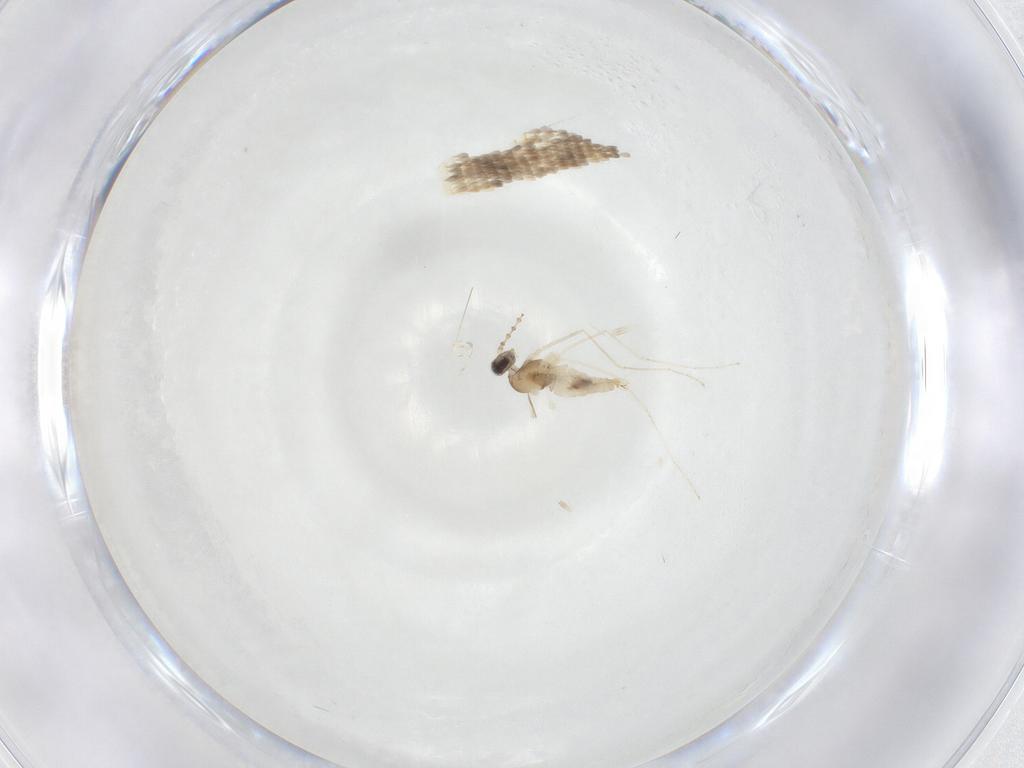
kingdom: Animalia
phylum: Arthropoda
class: Insecta
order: Diptera
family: Cecidomyiidae
